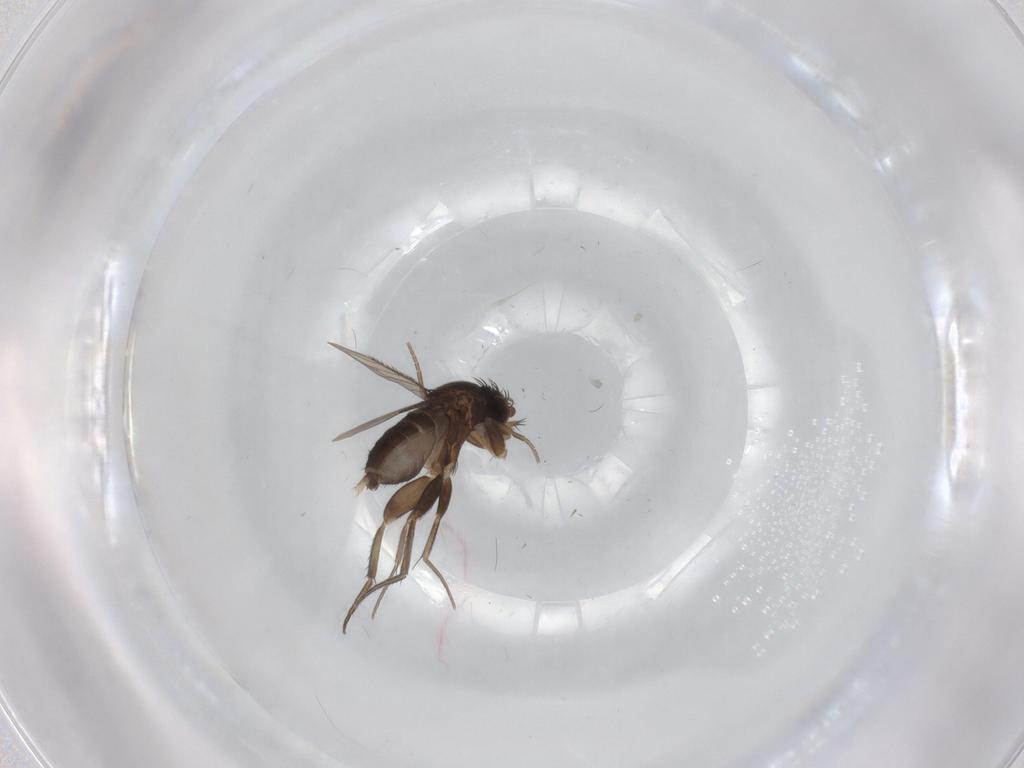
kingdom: Animalia
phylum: Arthropoda
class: Insecta
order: Diptera
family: Phoridae
